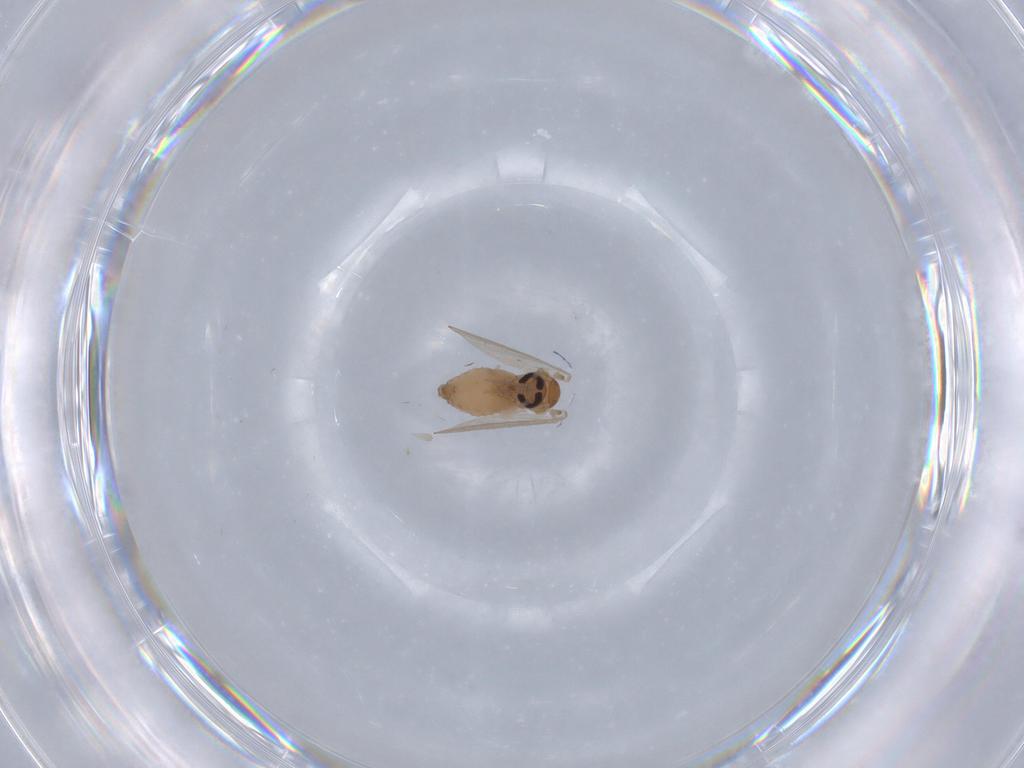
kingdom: Animalia
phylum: Arthropoda
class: Insecta
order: Diptera
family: Psychodidae
